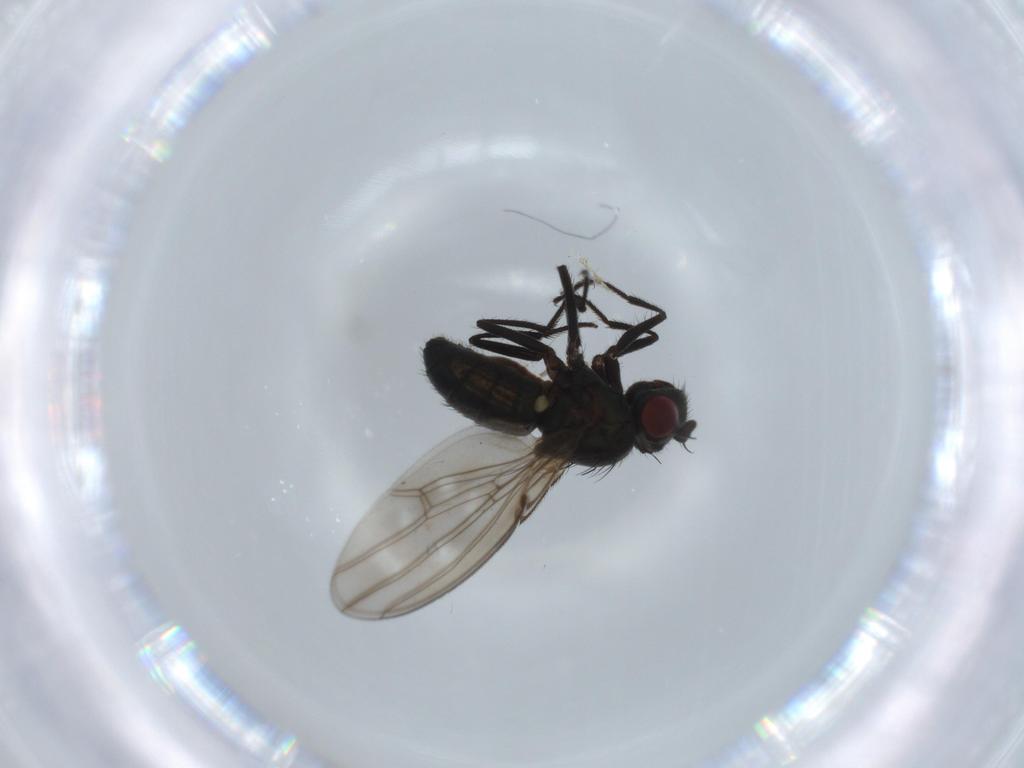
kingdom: Animalia
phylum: Arthropoda
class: Insecta
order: Diptera
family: Ephydridae
